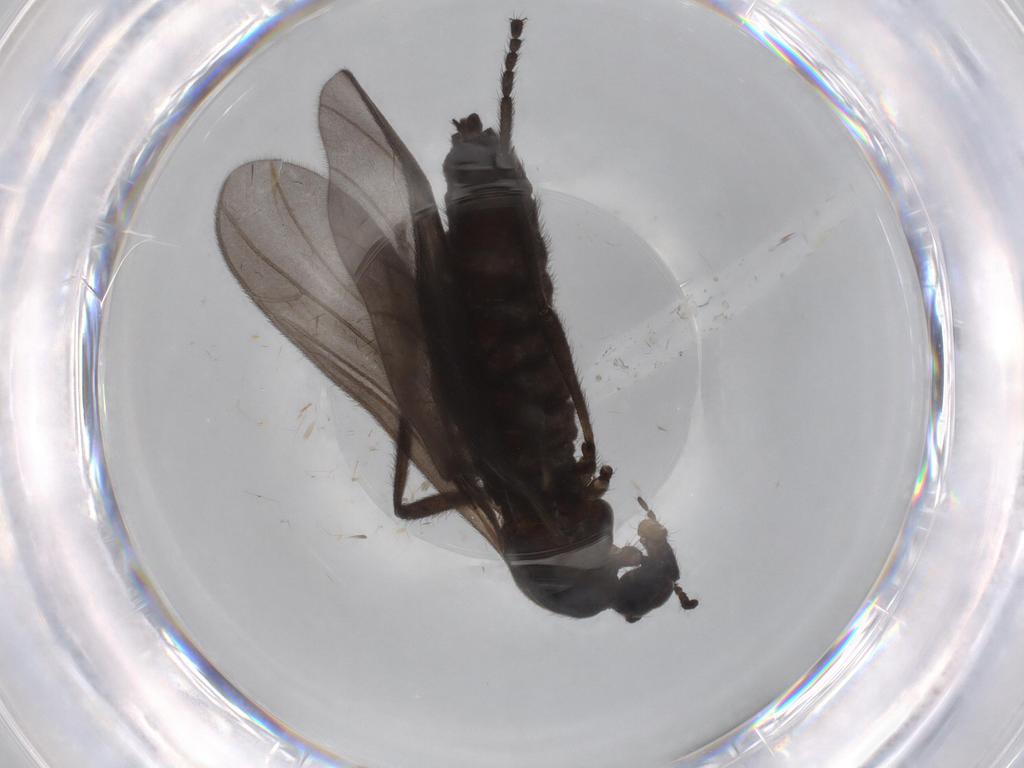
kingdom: Animalia
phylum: Arthropoda
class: Insecta
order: Diptera
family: Bibionidae
